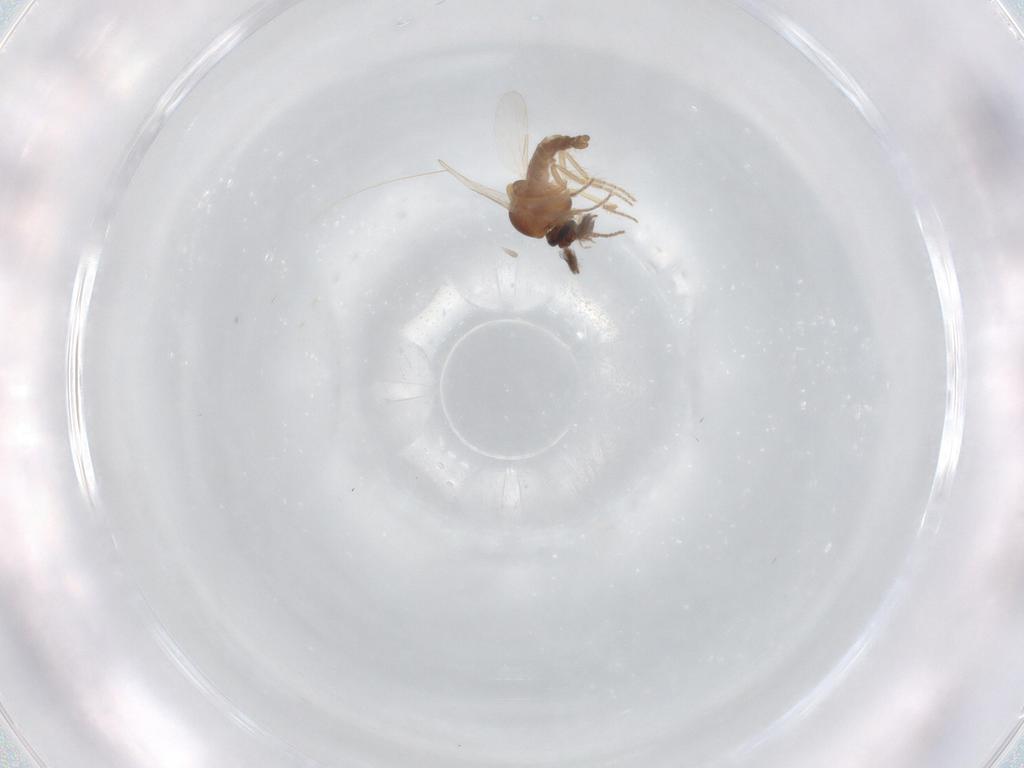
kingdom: Animalia
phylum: Arthropoda
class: Insecta
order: Diptera
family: Ceratopogonidae
